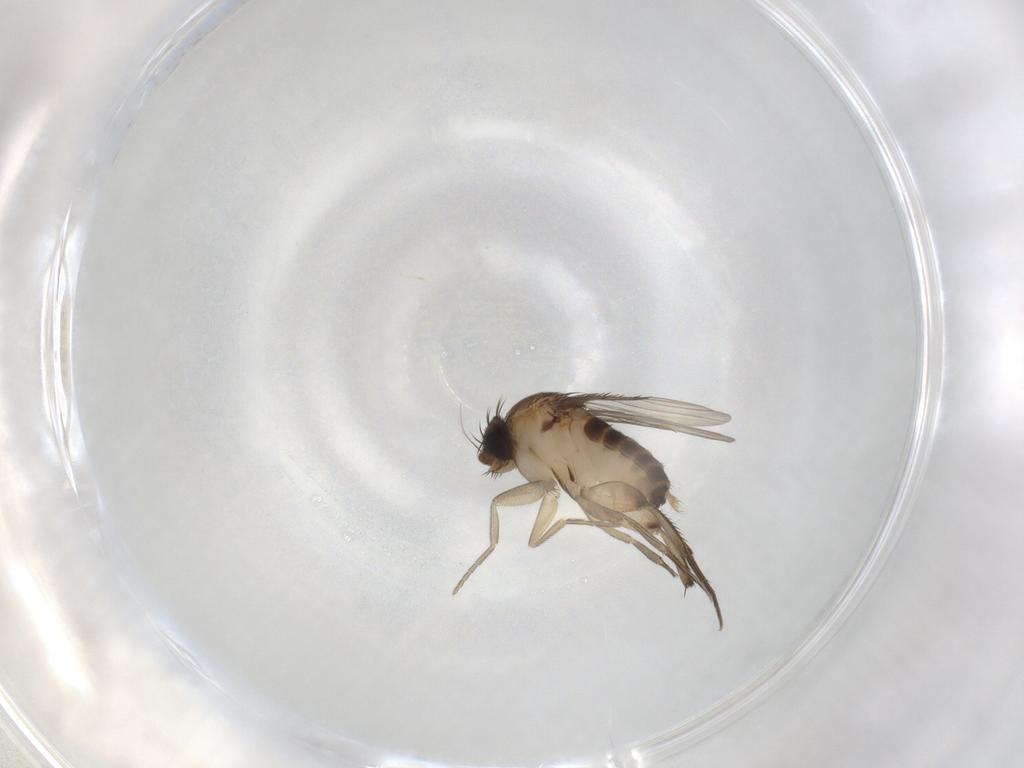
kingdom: Animalia
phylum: Arthropoda
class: Insecta
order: Diptera
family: Phoridae
